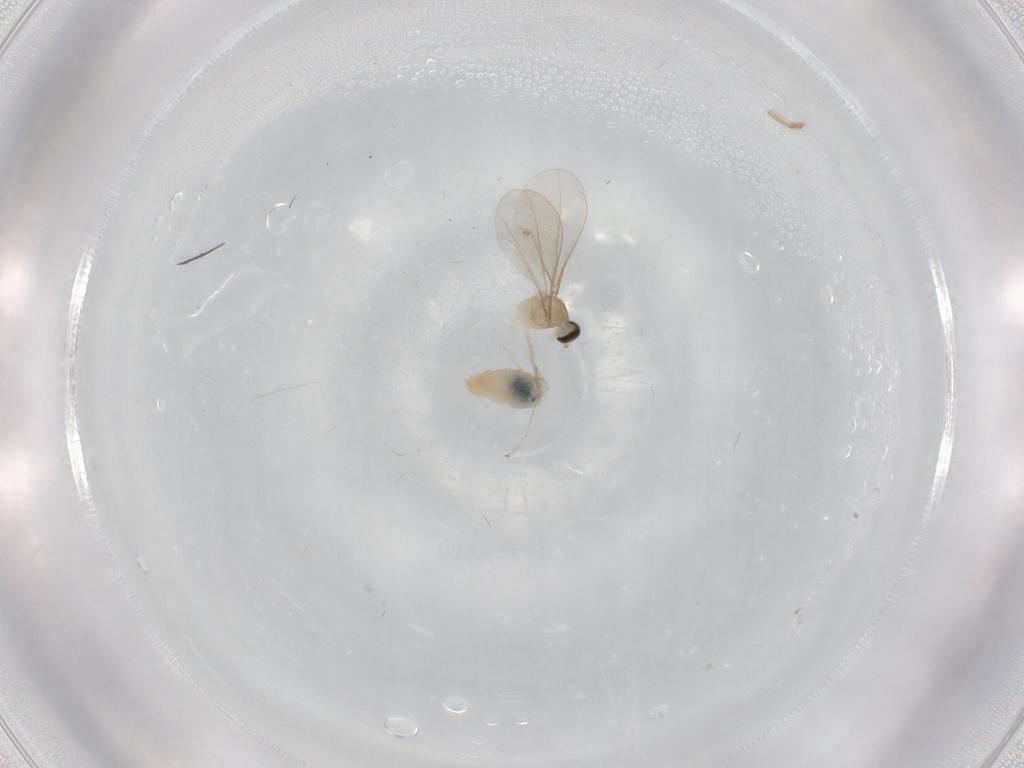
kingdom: Animalia
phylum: Arthropoda
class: Insecta
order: Diptera
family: Cecidomyiidae
